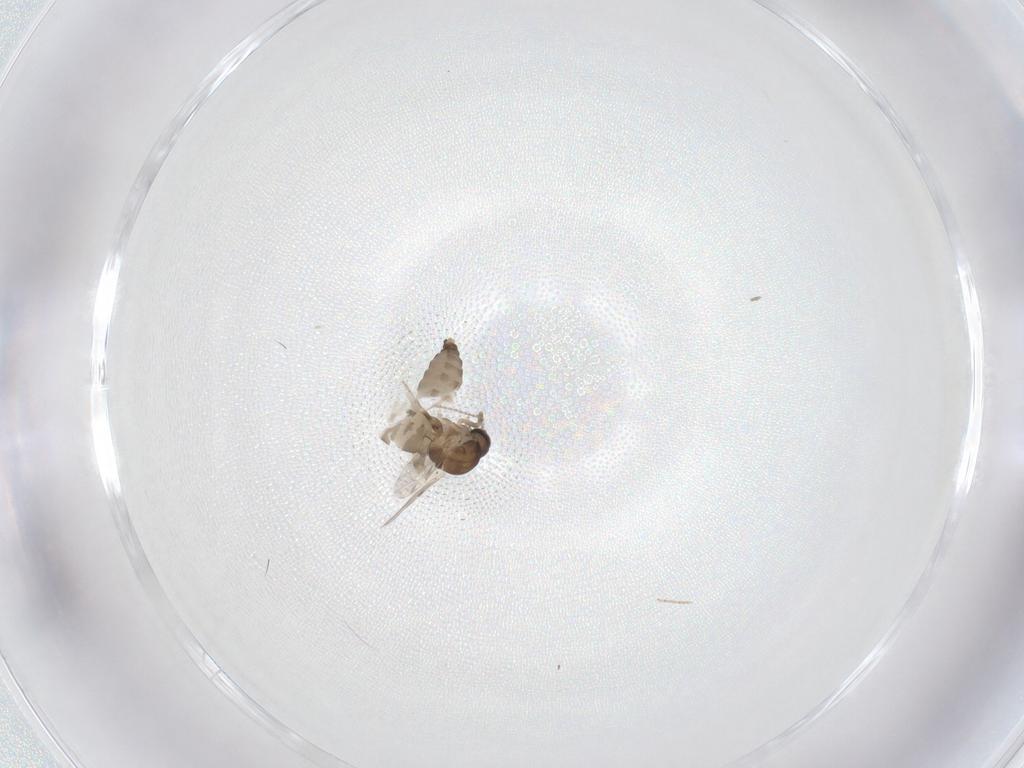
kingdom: Animalia
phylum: Arthropoda
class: Insecta
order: Diptera
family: Ceratopogonidae
